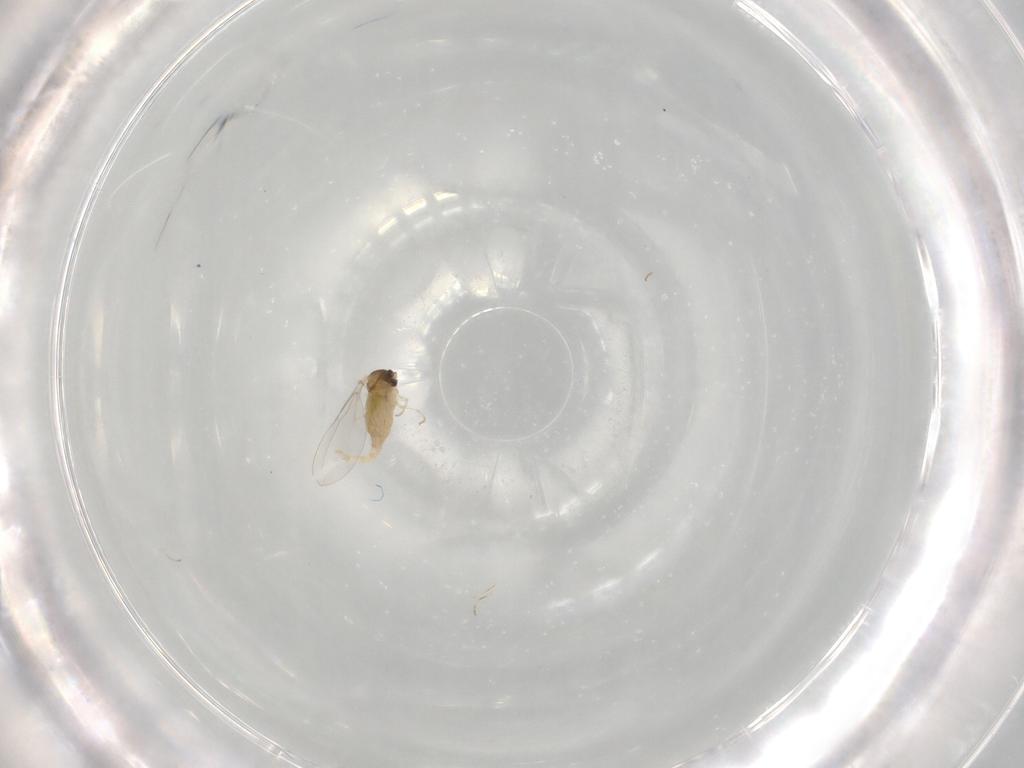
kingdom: Animalia
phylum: Arthropoda
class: Insecta
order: Diptera
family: Cecidomyiidae
